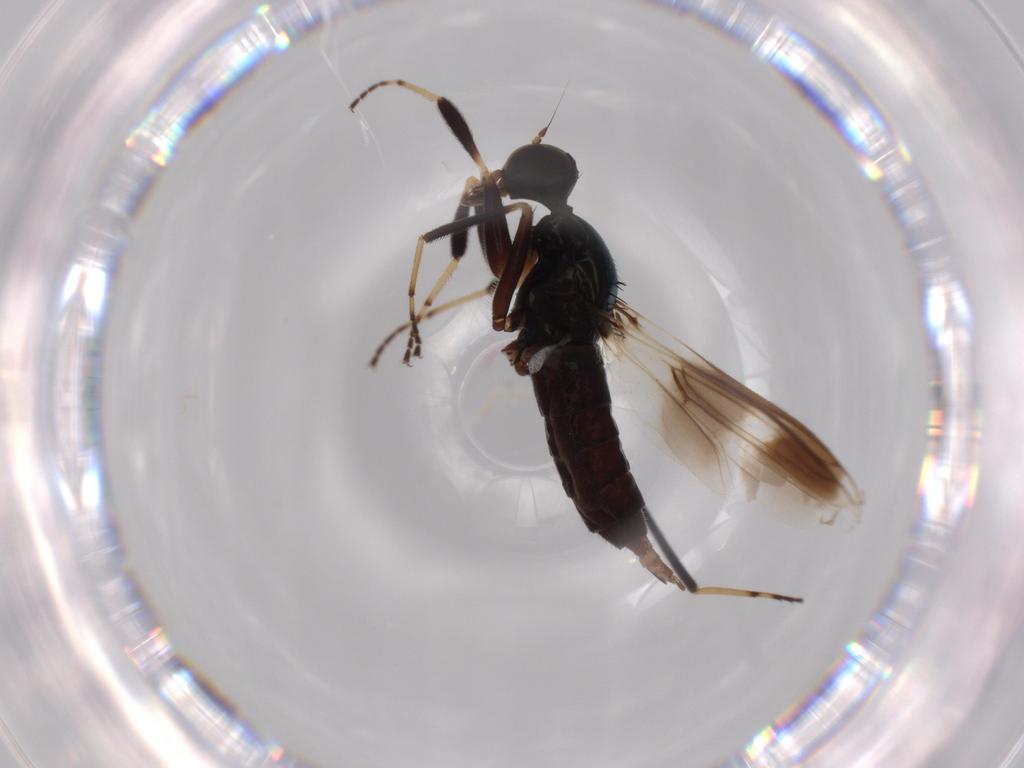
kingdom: Animalia
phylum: Arthropoda
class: Insecta
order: Diptera
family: Hybotidae
